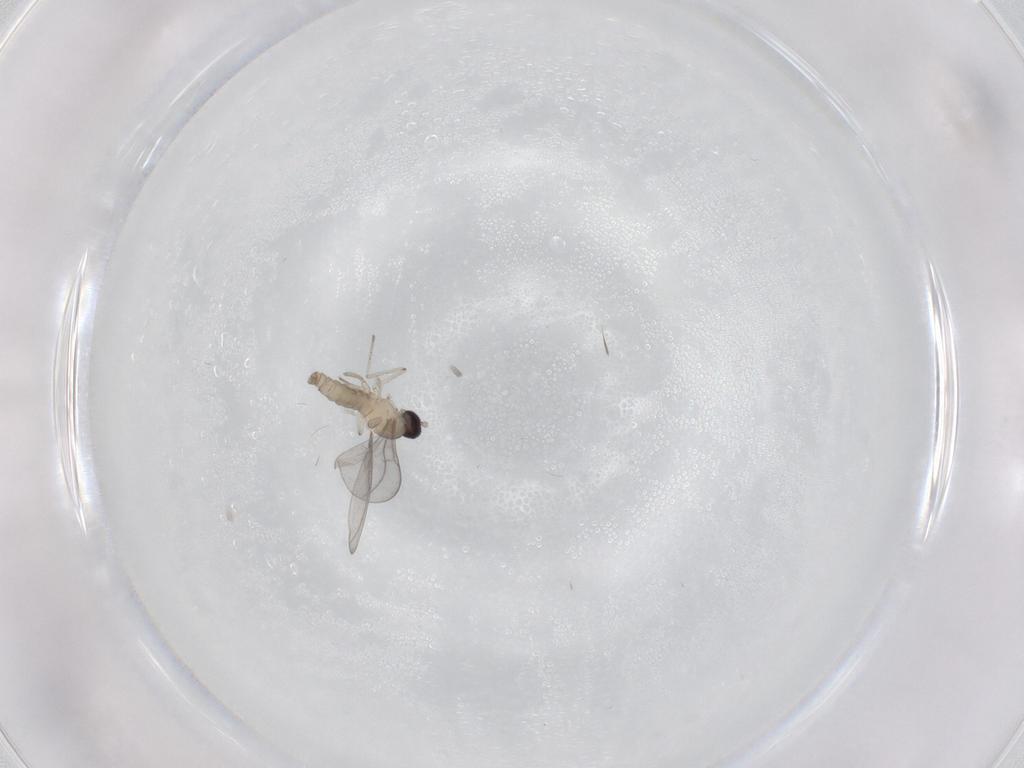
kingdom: Animalia
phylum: Arthropoda
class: Insecta
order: Diptera
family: Cecidomyiidae
